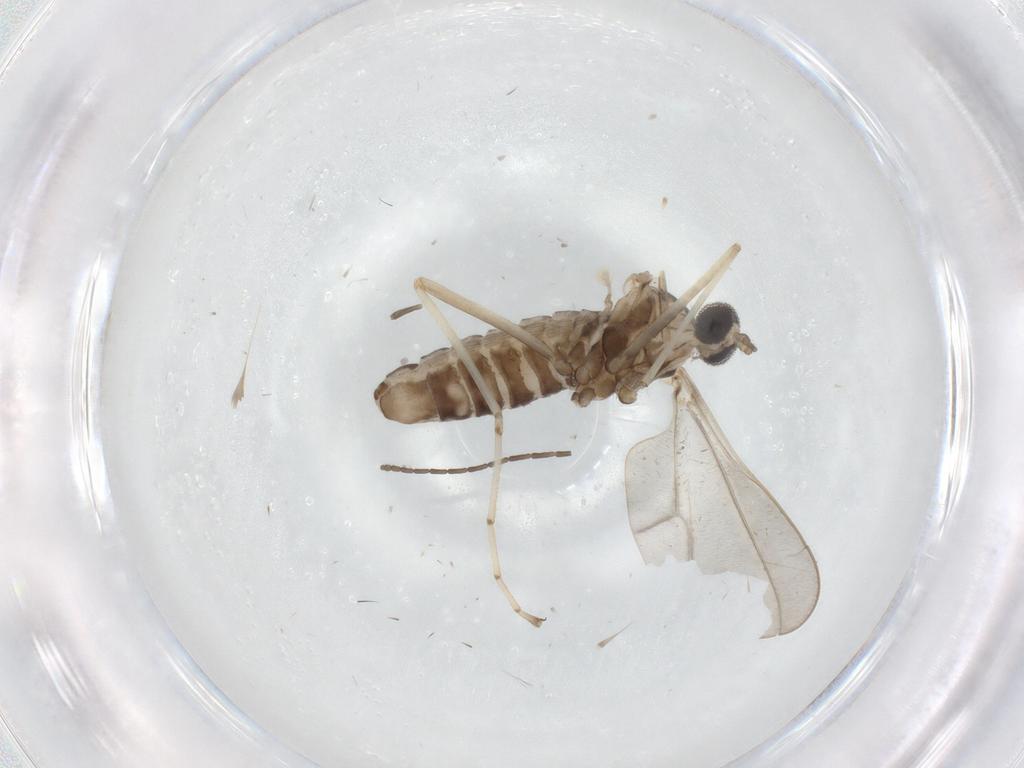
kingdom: Animalia
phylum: Arthropoda
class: Insecta
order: Diptera
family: Cecidomyiidae
